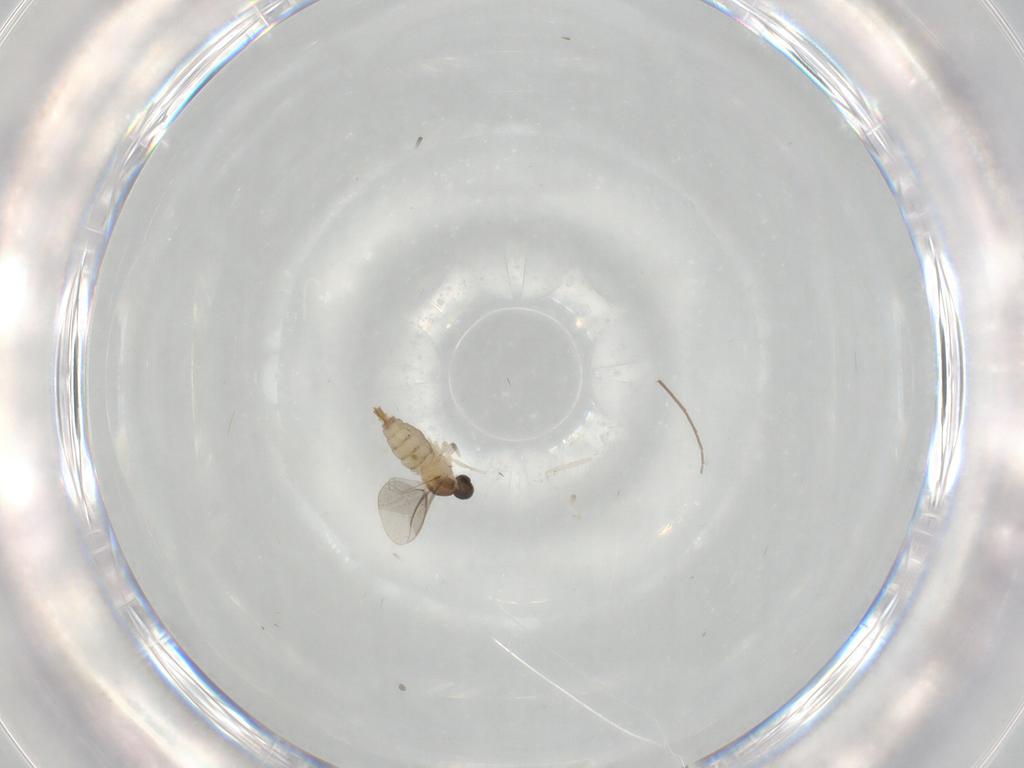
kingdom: Animalia
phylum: Arthropoda
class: Insecta
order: Diptera
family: Cecidomyiidae
